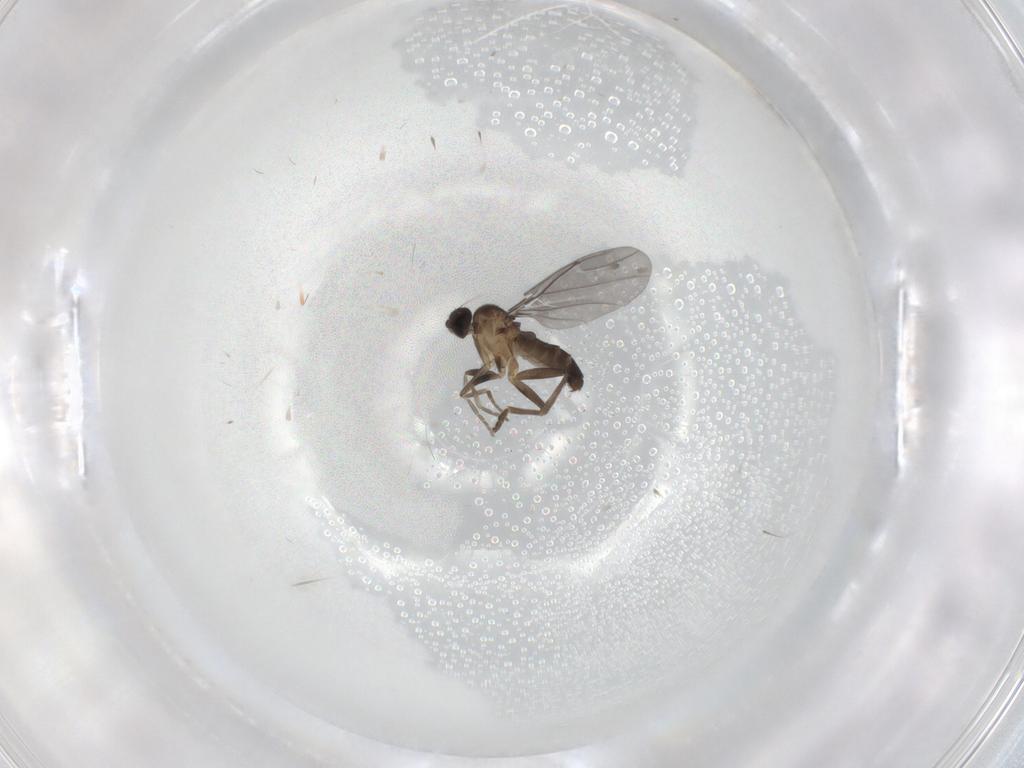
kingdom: Animalia
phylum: Arthropoda
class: Insecta
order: Diptera
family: Phoridae
